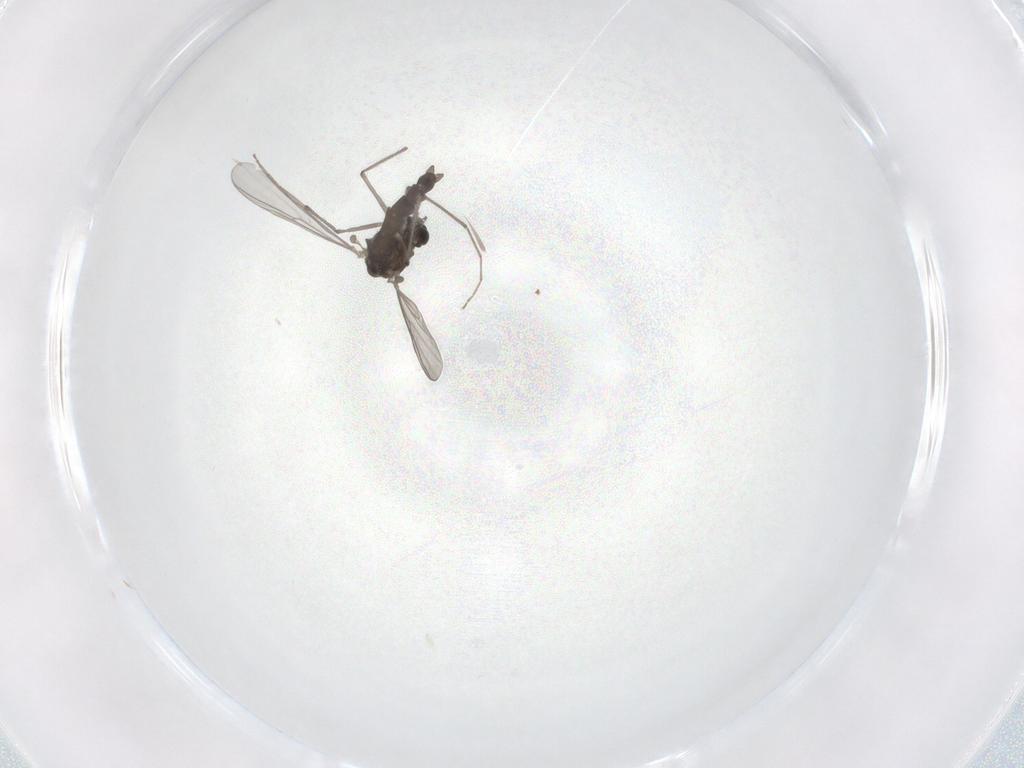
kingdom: Animalia
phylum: Arthropoda
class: Insecta
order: Diptera
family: Chironomidae
